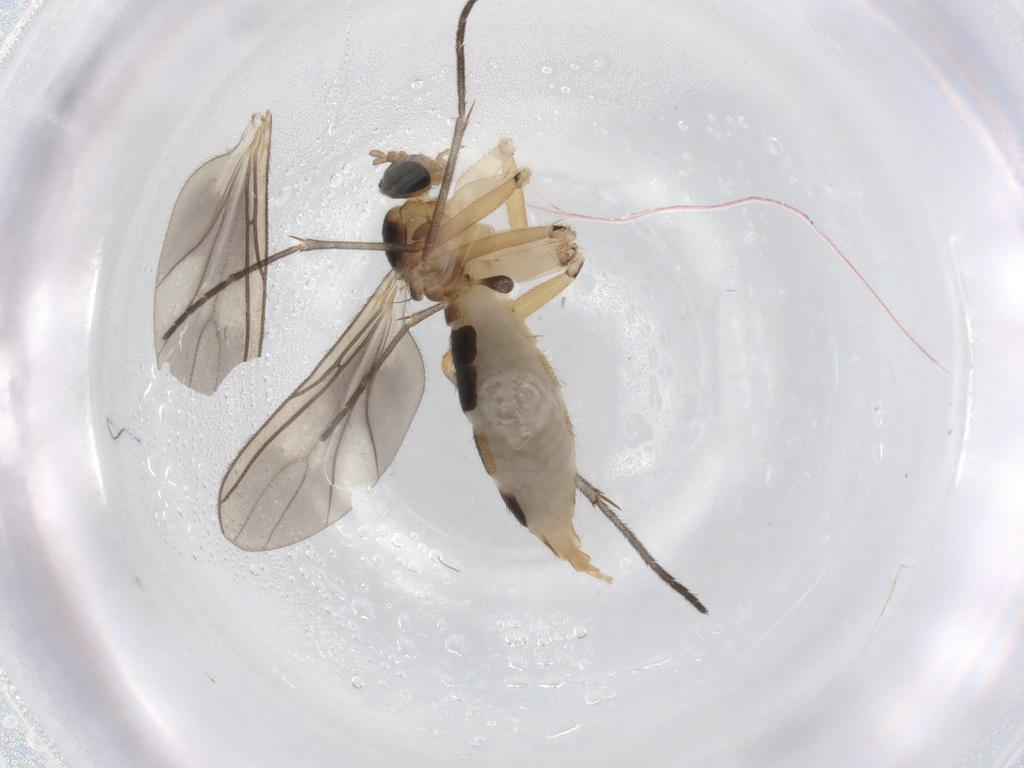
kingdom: Animalia
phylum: Arthropoda
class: Insecta
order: Diptera
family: Sciaridae
